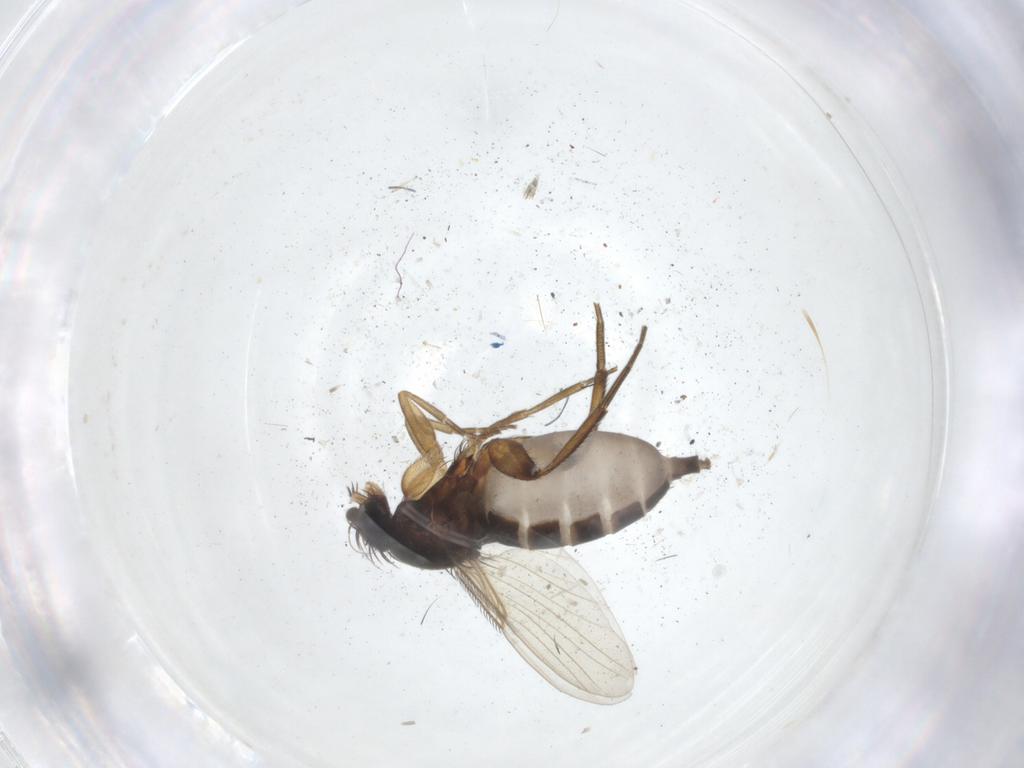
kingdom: Animalia
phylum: Arthropoda
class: Insecta
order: Diptera
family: Phoridae
